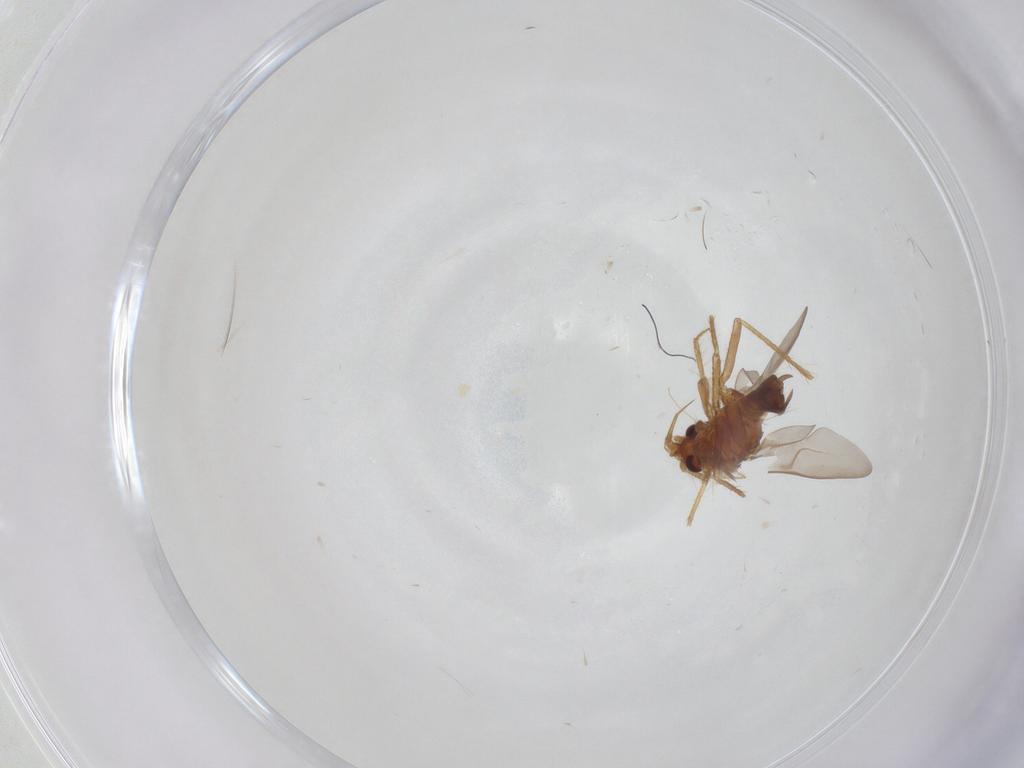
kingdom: Animalia
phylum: Arthropoda
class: Insecta
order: Hemiptera
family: Ceratocombidae
